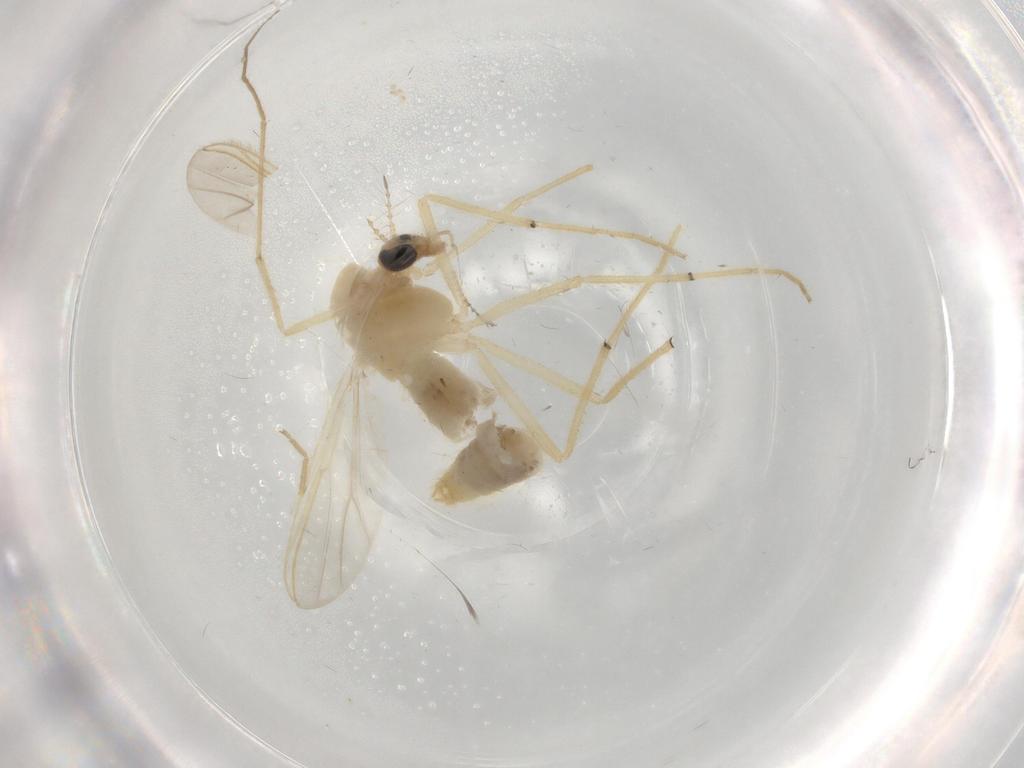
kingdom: Animalia
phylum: Arthropoda
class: Insecta
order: Diptera
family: Chironomidae
